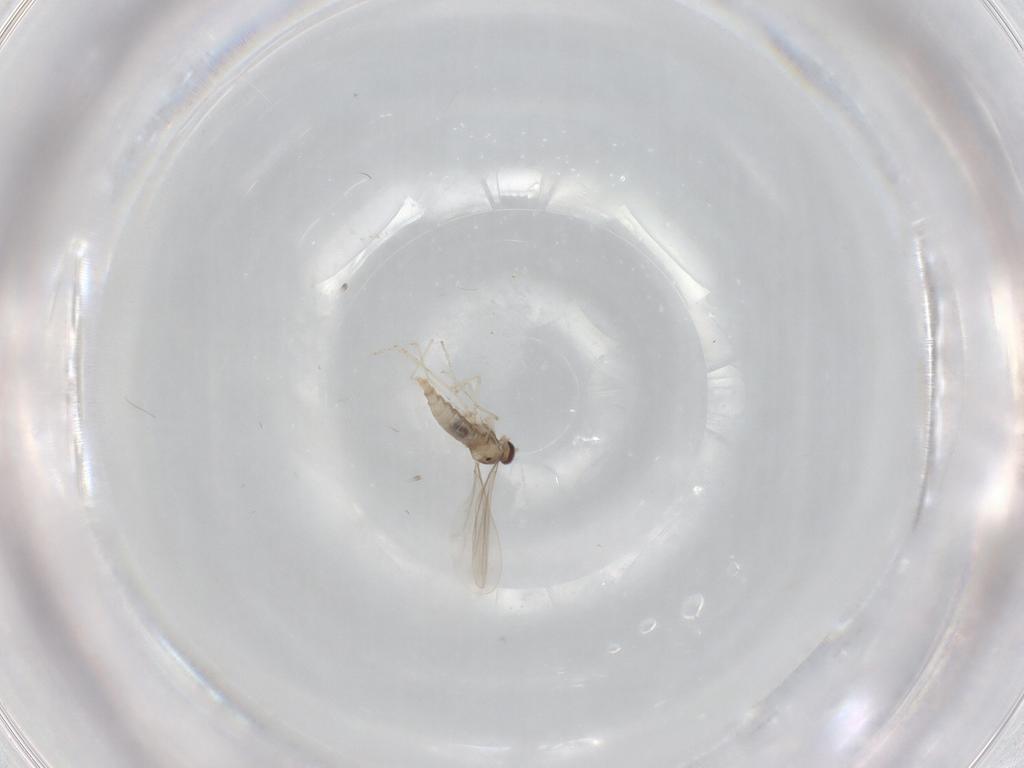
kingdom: Animalia
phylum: Arthropoda
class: Insecta
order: Diptera
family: Cecidomyiidae
